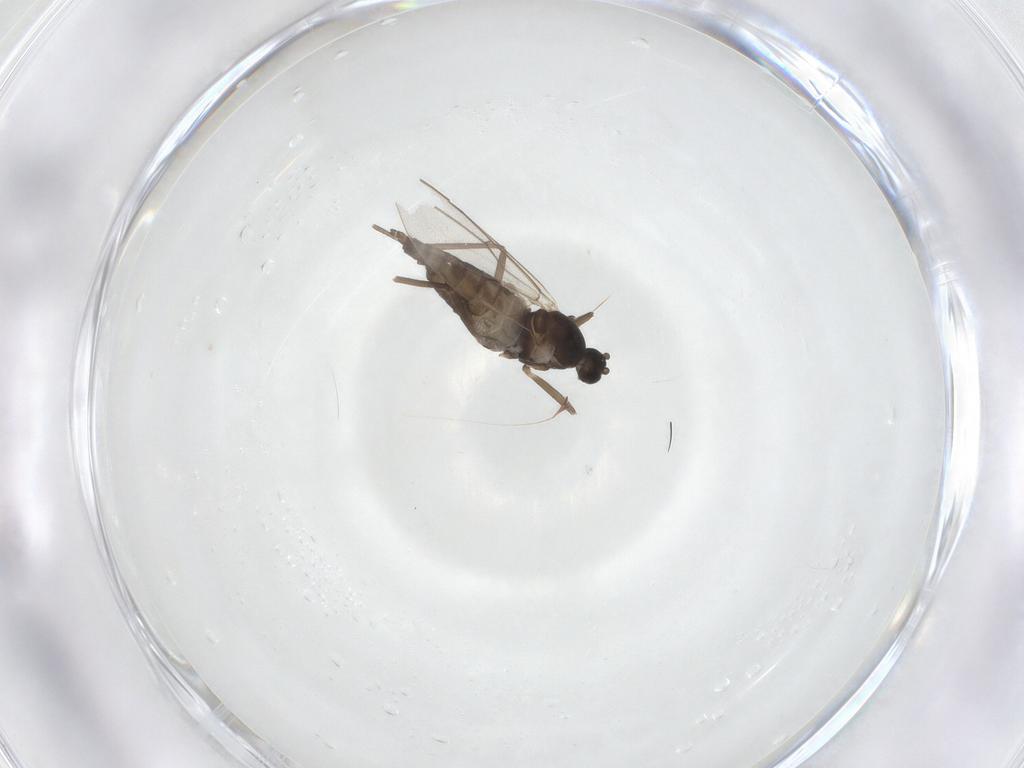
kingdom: Animalia
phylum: Arthropoda
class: Insecta
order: Diptera
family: Cecidomyiidae
